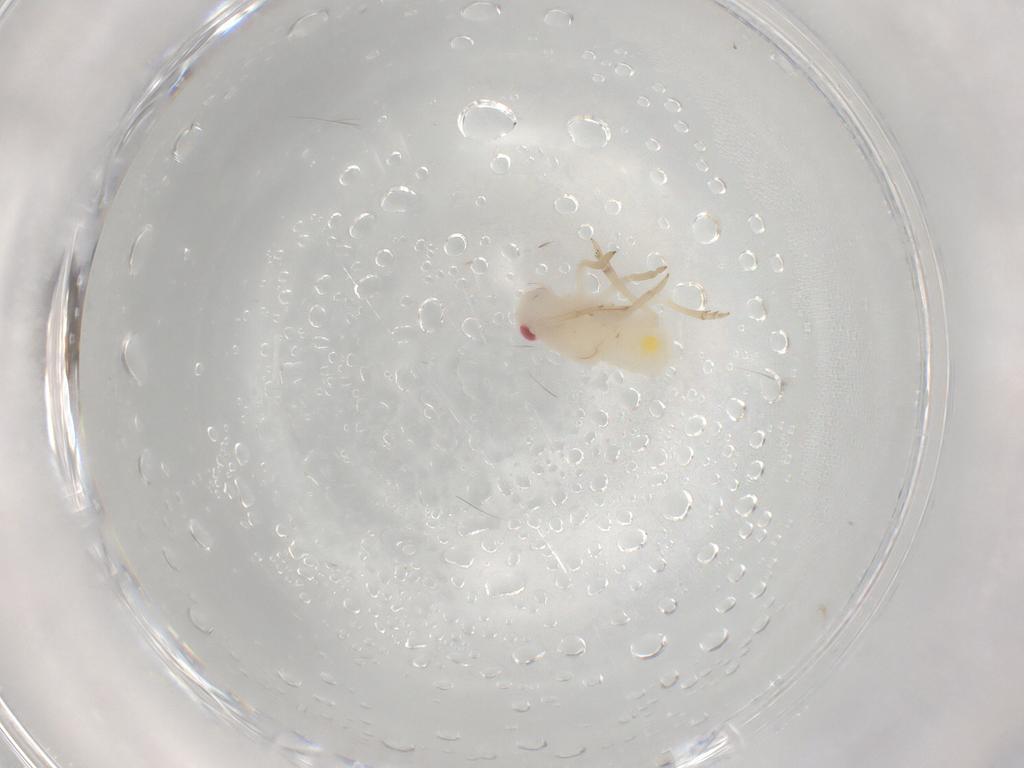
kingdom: Animalia
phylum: Arthropoda
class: Insecta
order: Hemiptera
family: Tropiduchidae
